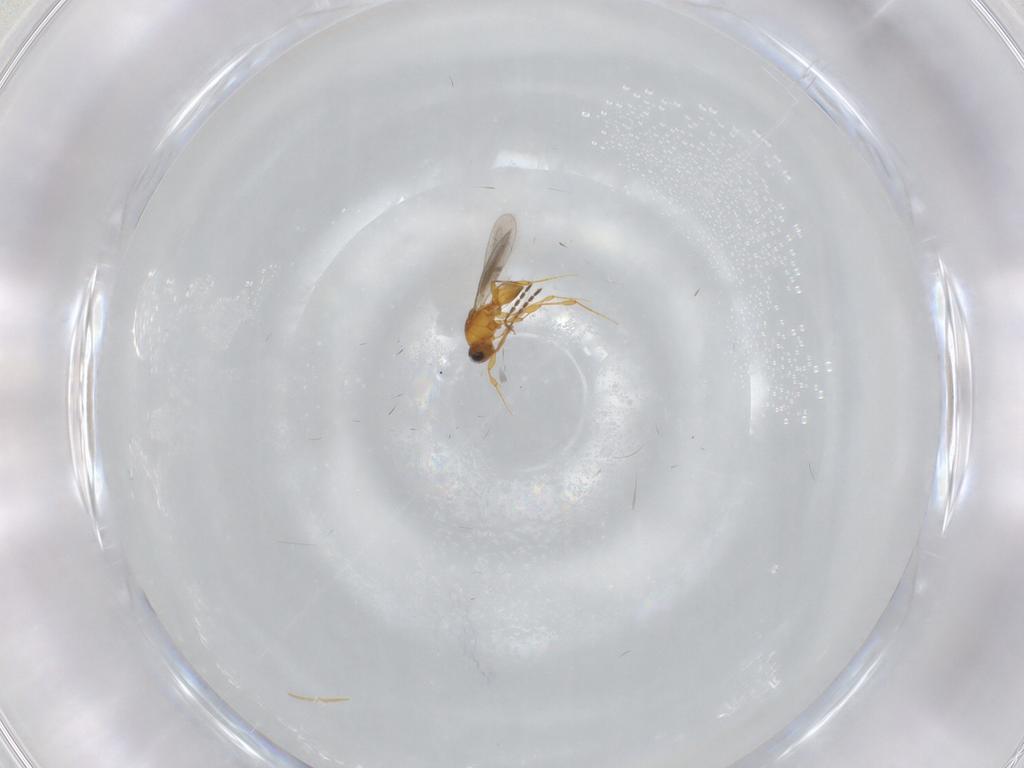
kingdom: Animalia
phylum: Arthropoda
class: Insecta
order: Hymenoptera
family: Platygastridae
